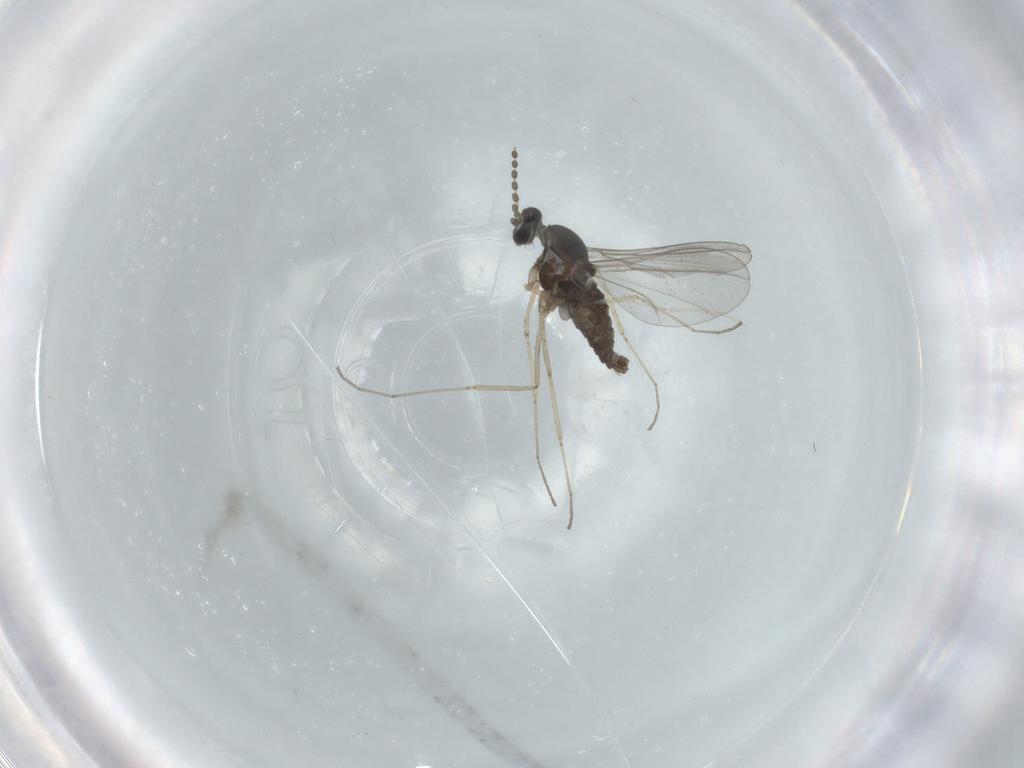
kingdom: Animalia
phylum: Arthropoda
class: Insecta
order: Diptera
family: Cecidomyiidae
